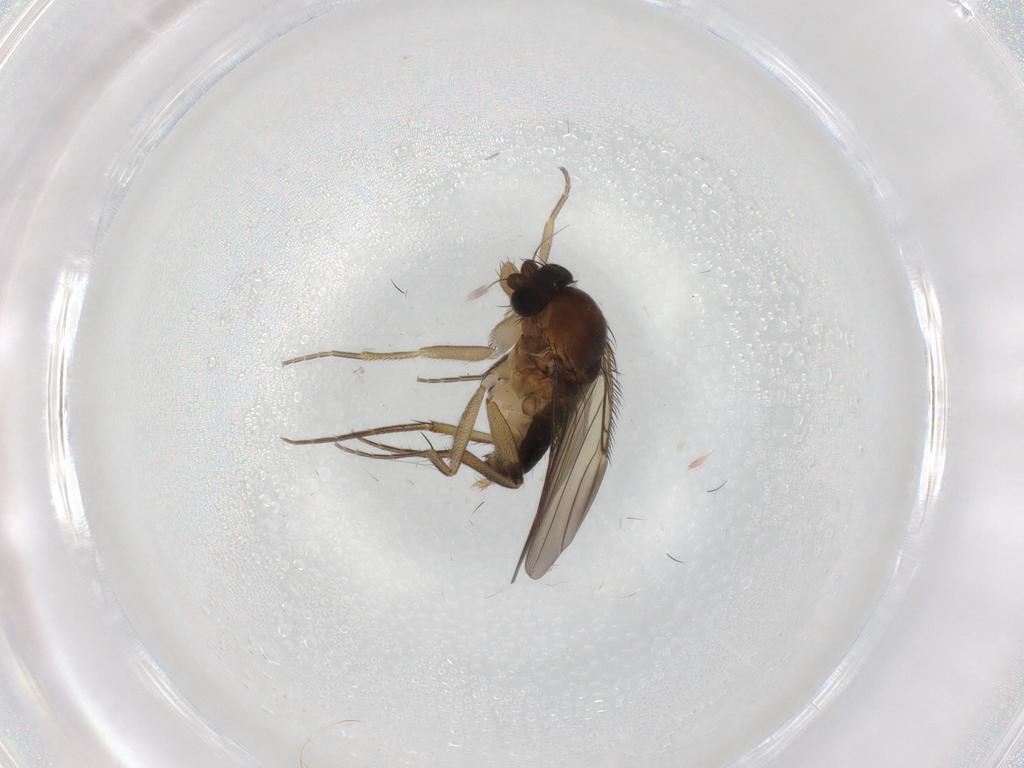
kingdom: Animalia
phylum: Arthropoda
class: Insecta
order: Diptera
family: Phoridae
